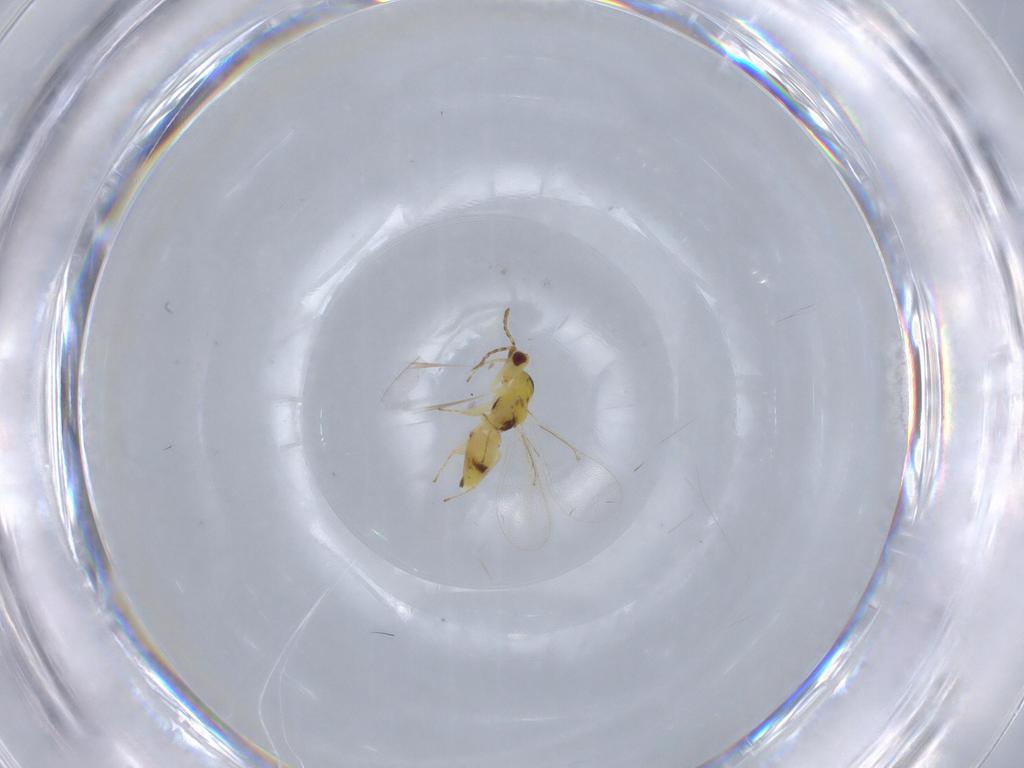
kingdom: Animalia
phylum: Arthropoda
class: Insecta
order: Hymenoptera
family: Eulophidae
